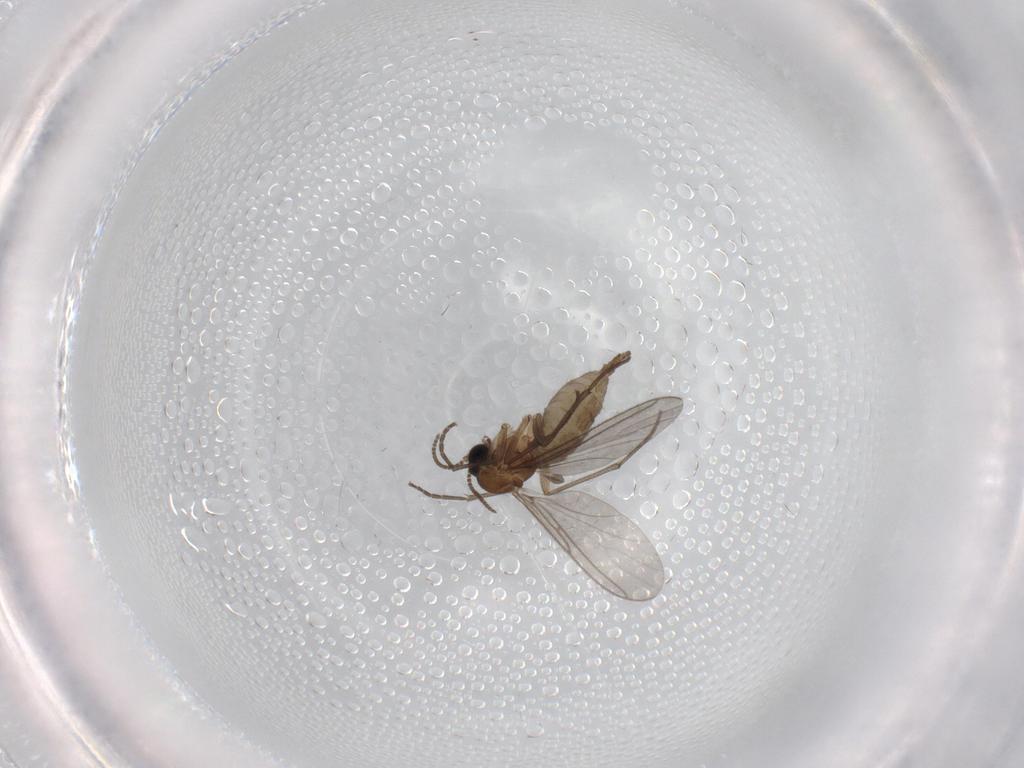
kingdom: Animalia
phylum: Arthropoda
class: Insecta
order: Diptera
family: Sciaridae
